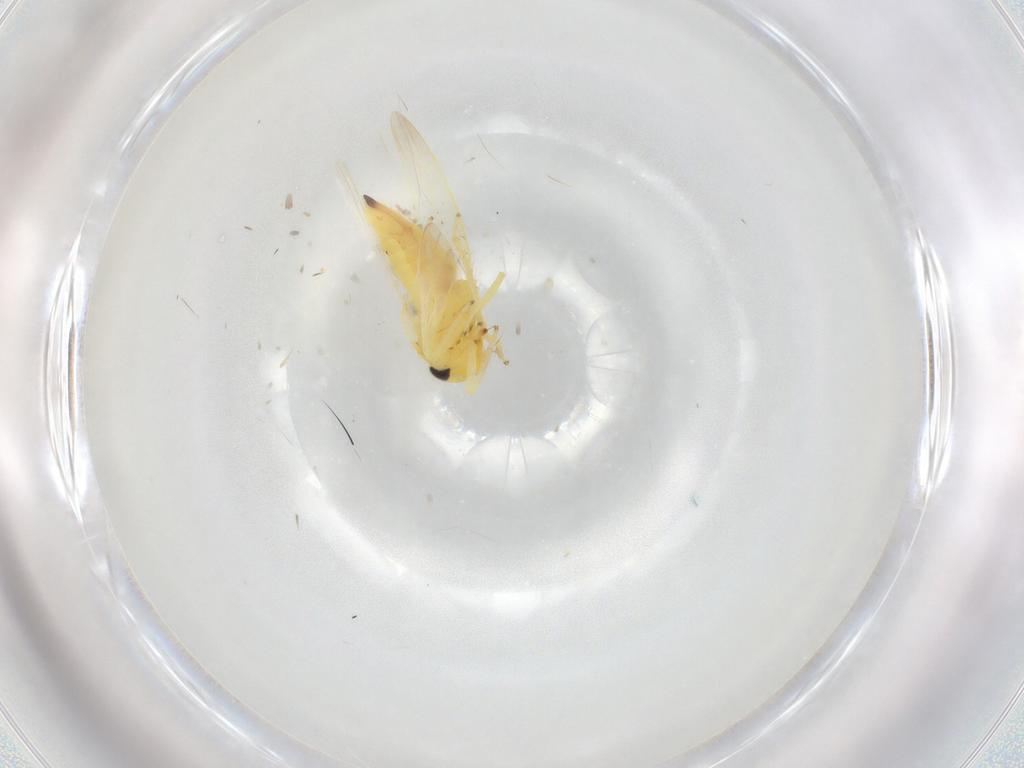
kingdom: Animalia
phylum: Arthropoda
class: Insecta
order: Hemiptera
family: Cicadellidae
